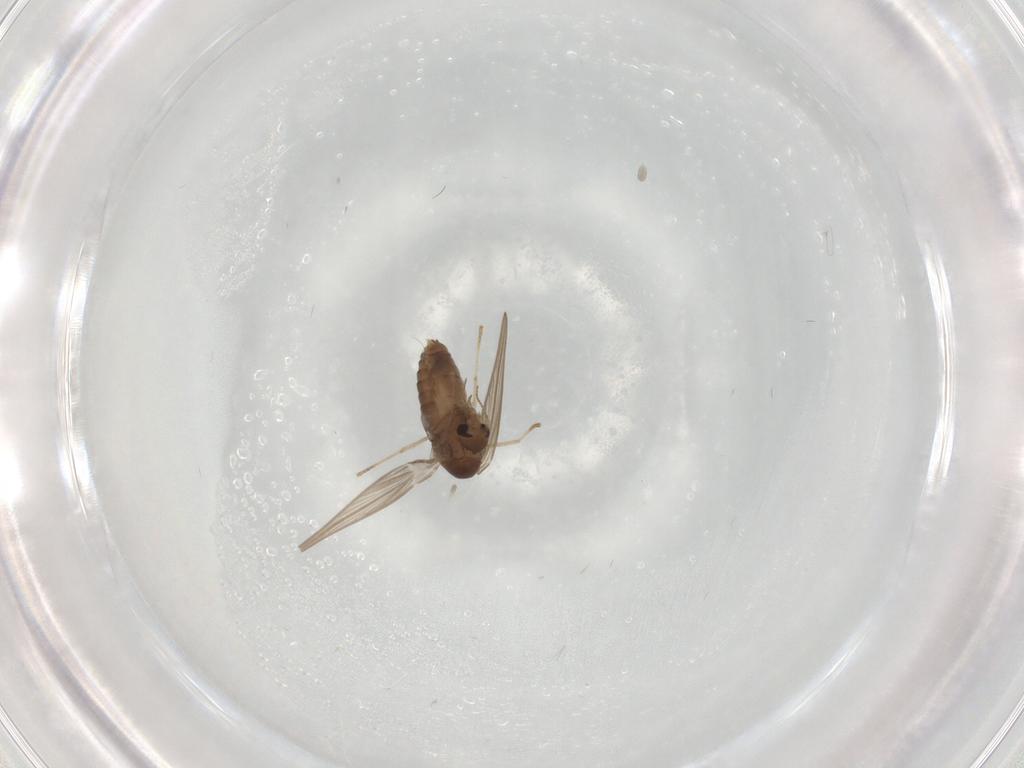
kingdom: Animalia
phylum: Arthropoda
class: Insecta
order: Diptera
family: Psychodidae
